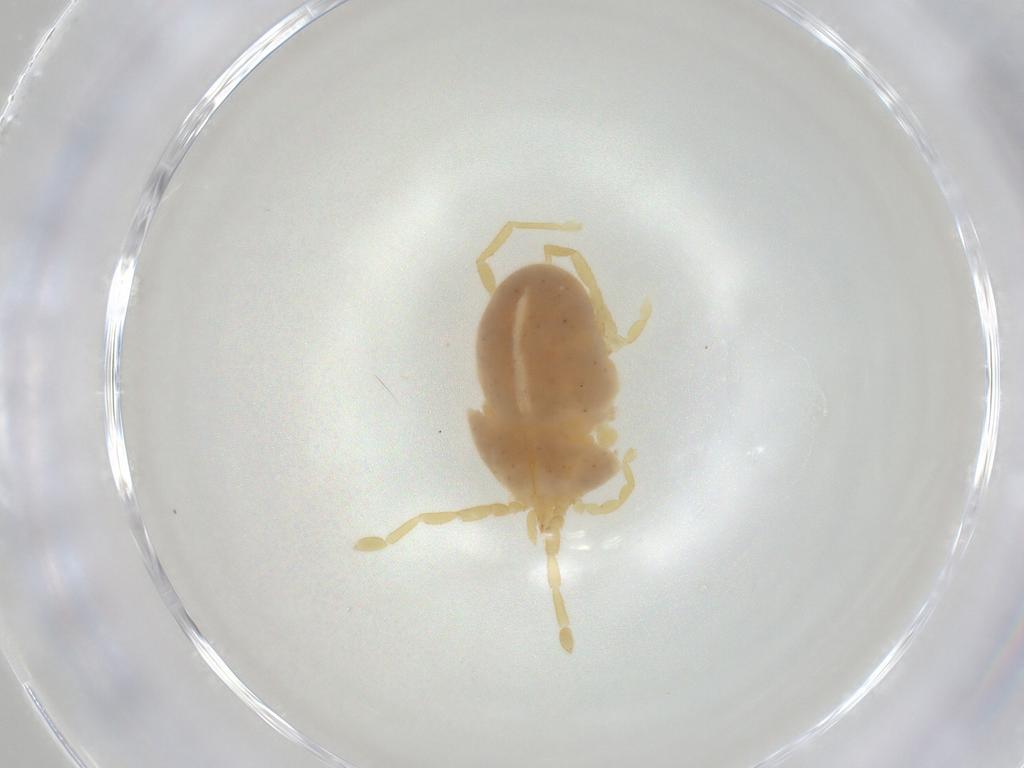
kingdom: Animalia
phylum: Arthropoda
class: Arachnida
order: Trombidiformes
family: Erythraeidae
